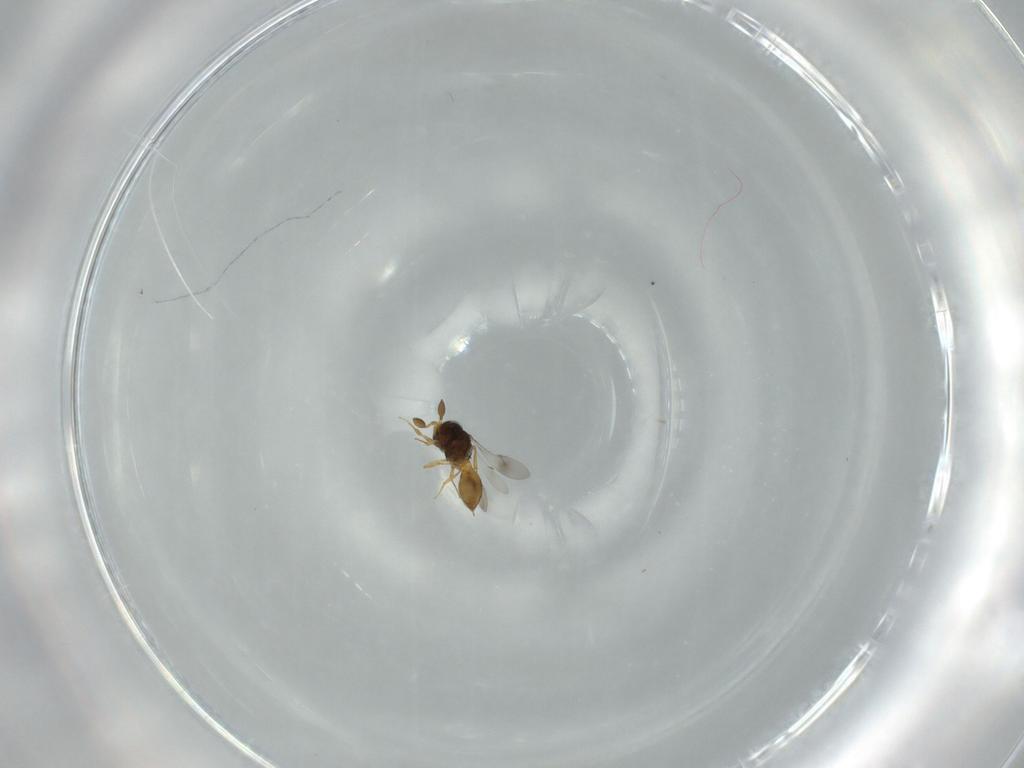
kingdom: Animalia
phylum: Arthropoda
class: Insecta
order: Hymenoptera
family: Scelionidae
